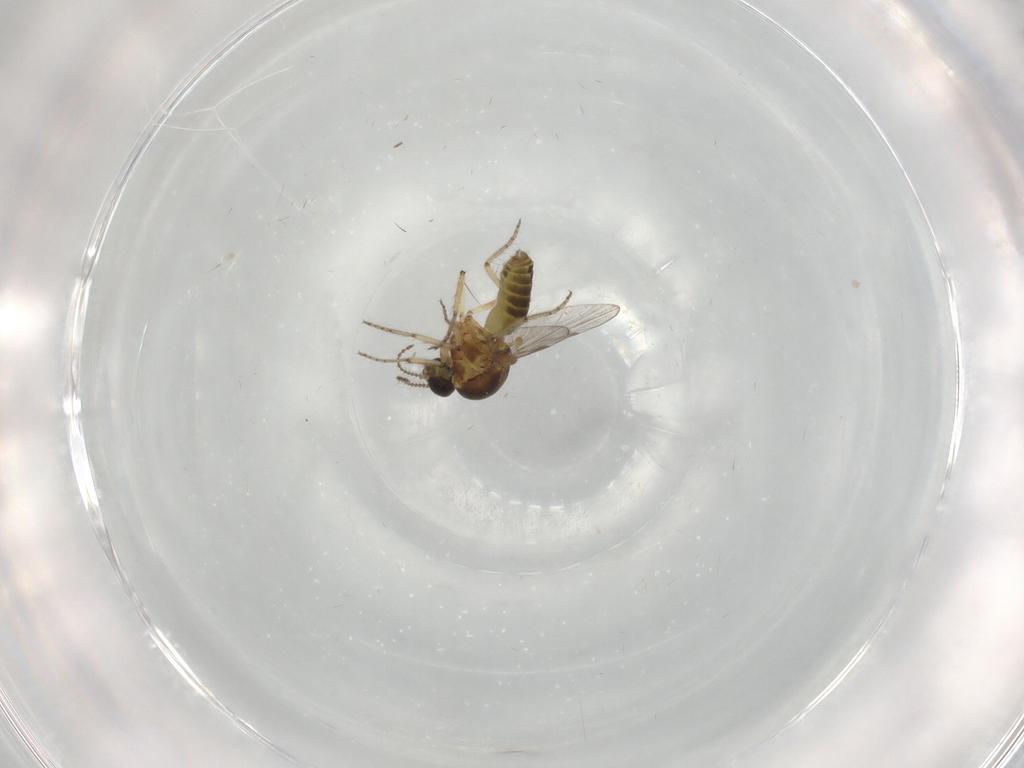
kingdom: Animalia
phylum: Arthropoda
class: Insecta
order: Diptera
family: Ceratopogonidae
